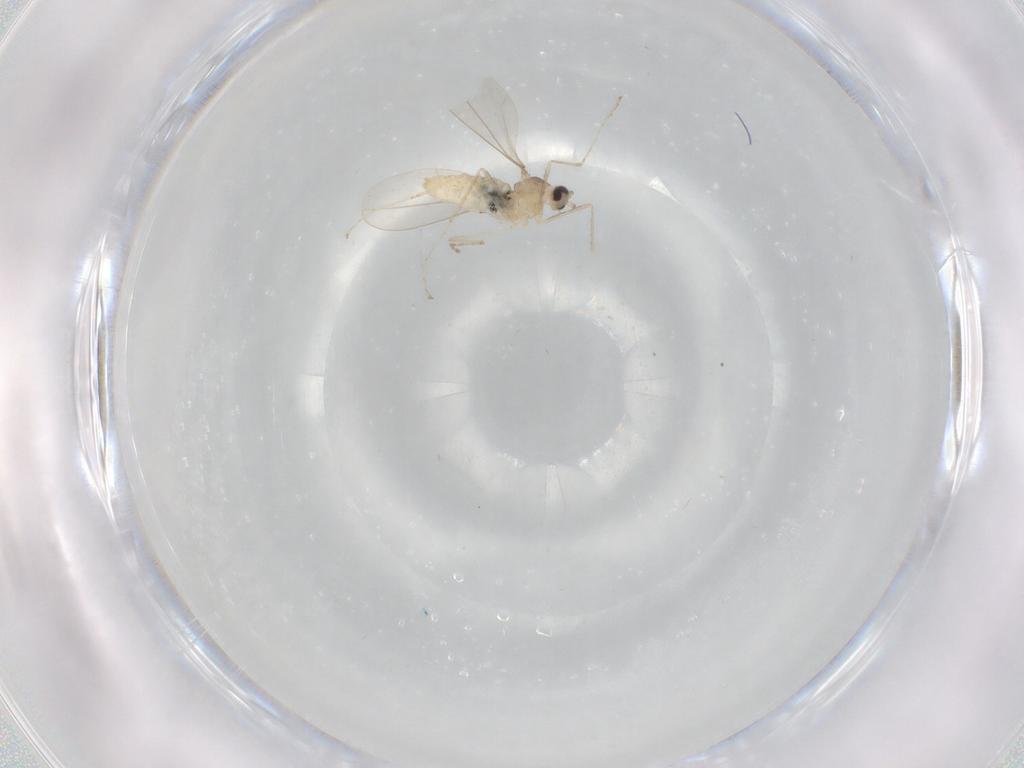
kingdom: Animalia
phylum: Arthropoda
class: Insecta
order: Diptera
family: Cecidomyiidae
